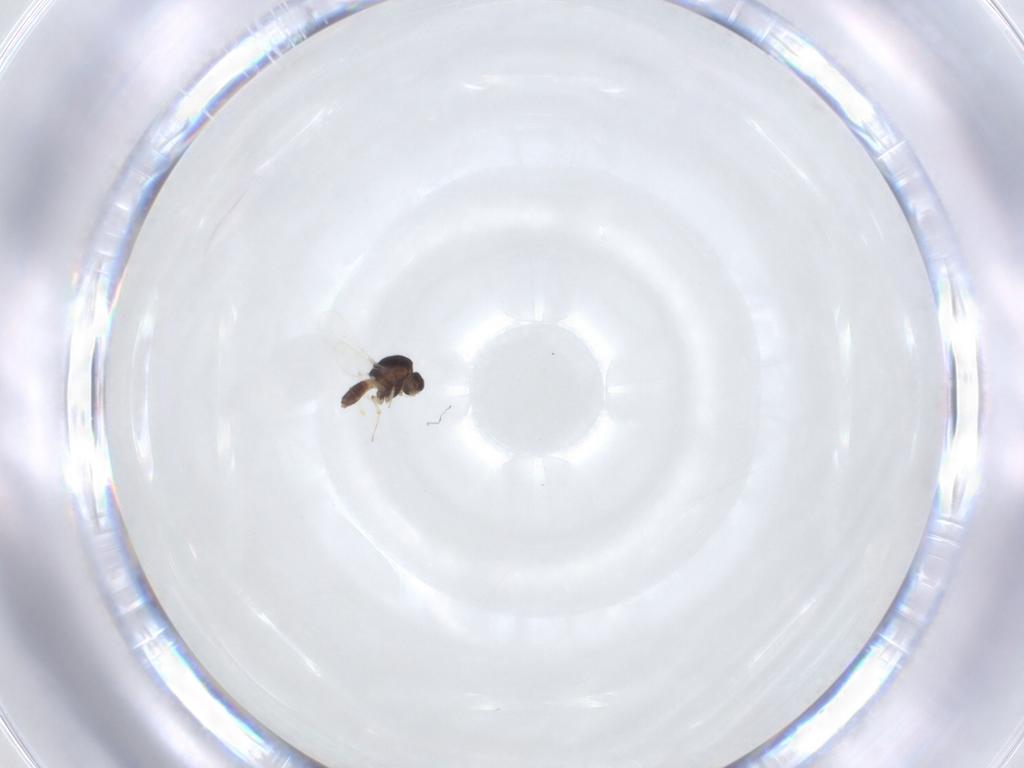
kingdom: Animalia
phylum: Arthropoda
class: Insecta
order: Diptera
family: Chironomidae
